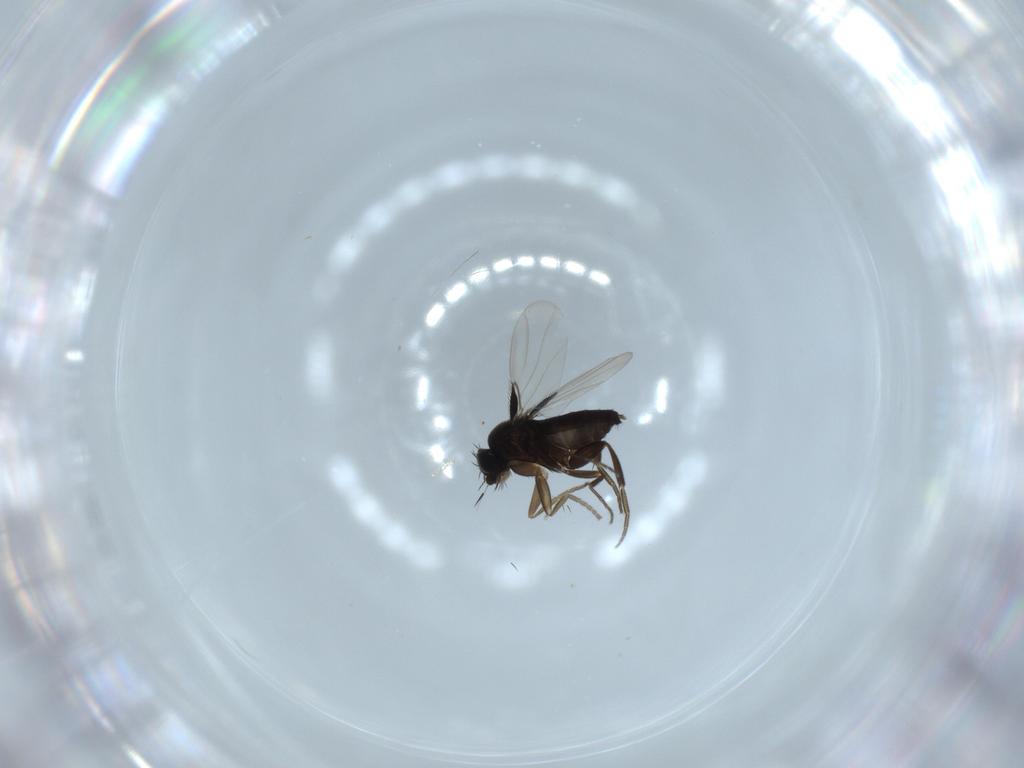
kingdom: Animalia
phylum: Arthropoda
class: Insecta
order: Diptera
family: Phoridae
